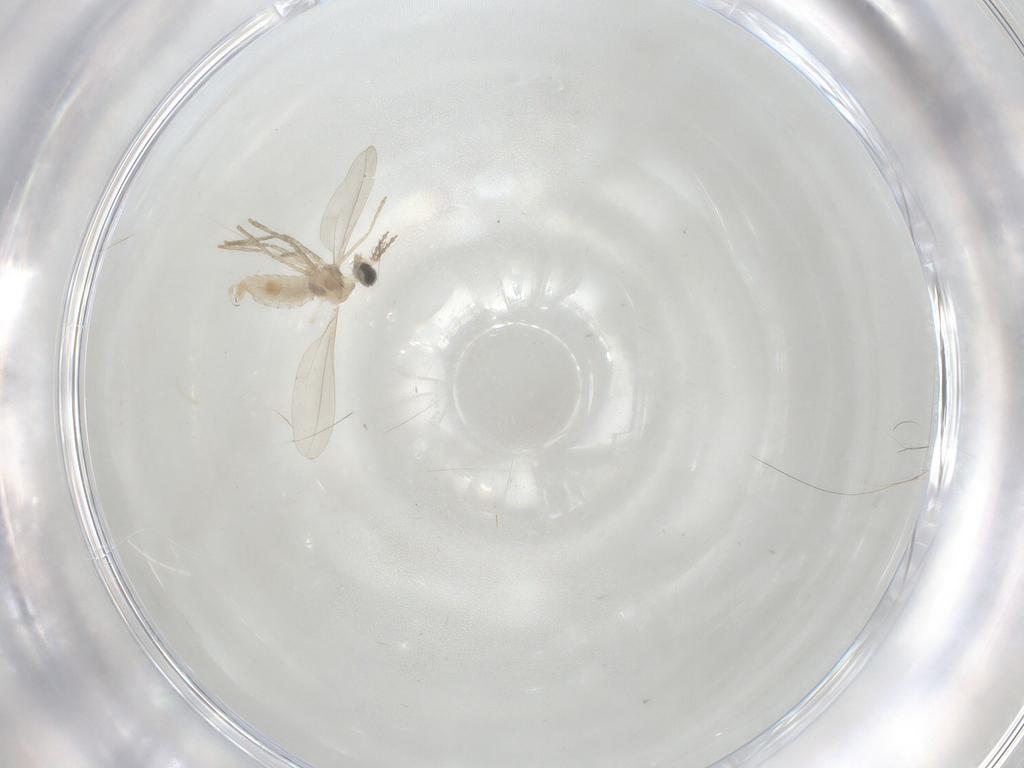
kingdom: Animalia
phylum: Arthropoda
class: Insecta
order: Diptera
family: Cecidomyiidae
